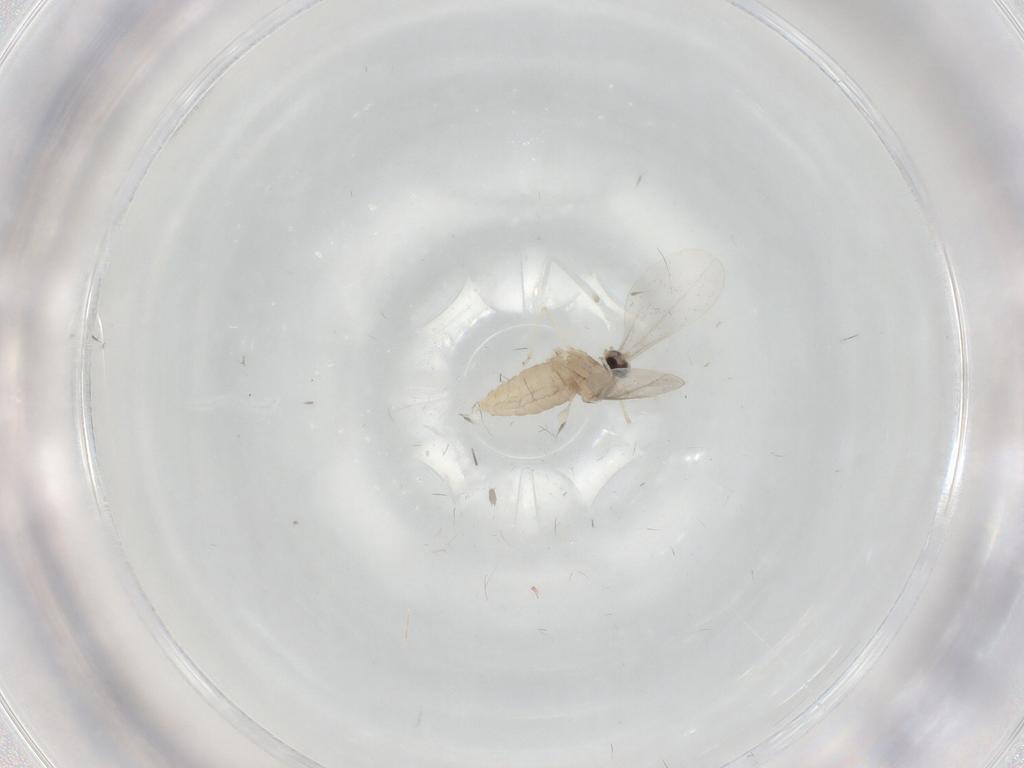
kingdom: Animalia
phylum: Arthropoda
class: Insecta
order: Diptera
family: Cecidomyiidae
